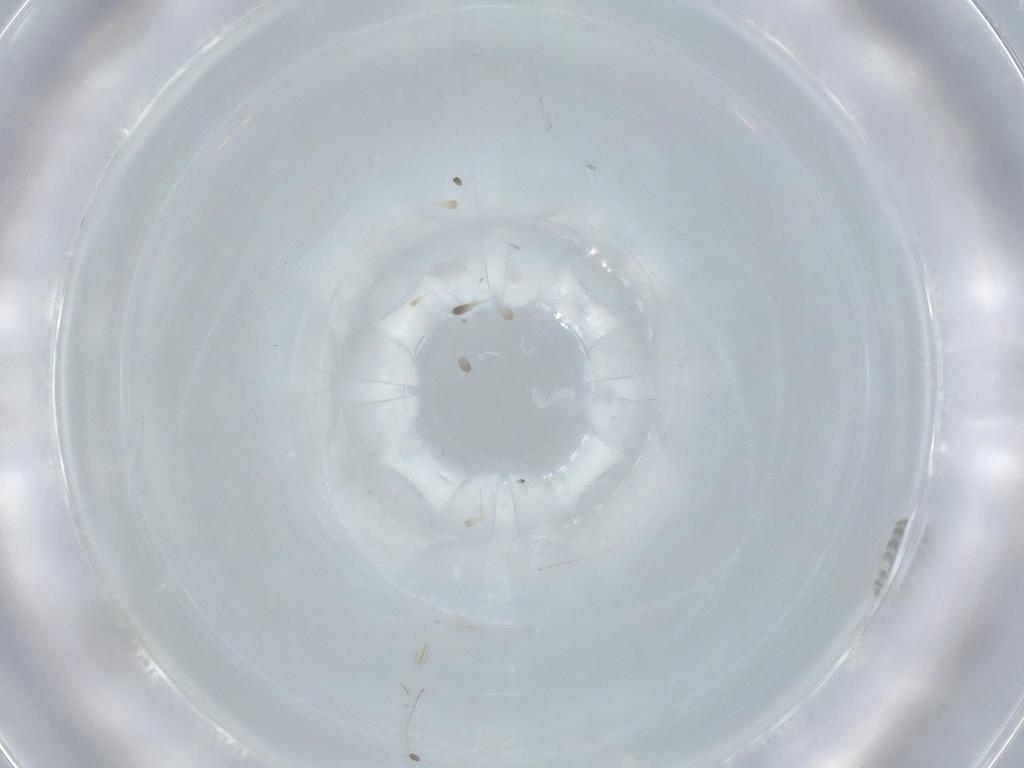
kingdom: Animalia
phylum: Arthropoda
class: Insecta
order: Diptera
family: Cecidomyiidae
